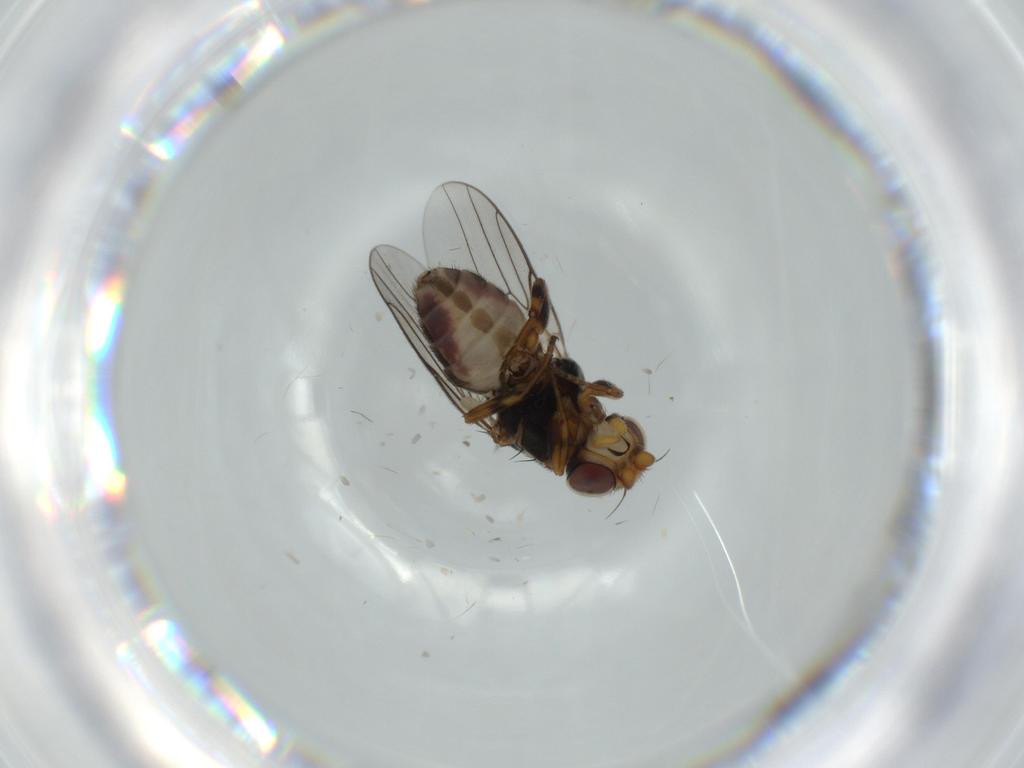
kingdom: Animalia
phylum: Arthropoda
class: Insecta
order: Diptera
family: Chloropidae
